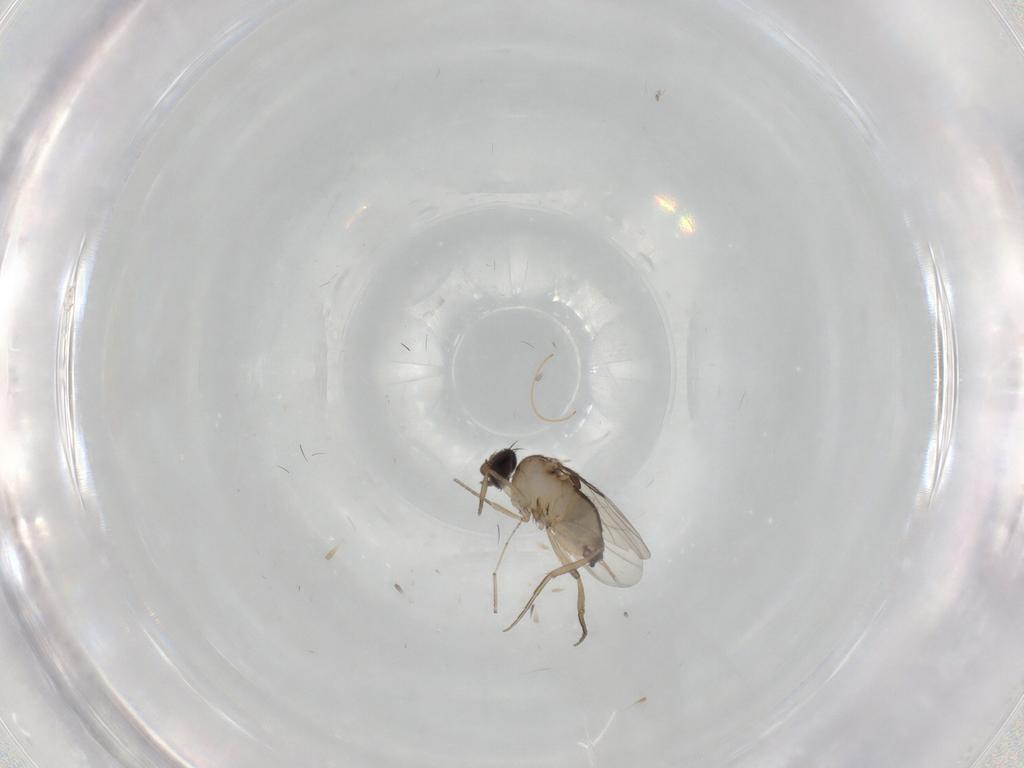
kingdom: Animalia
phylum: Arthropoda
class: Insecta
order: Diptera
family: Phoridae
